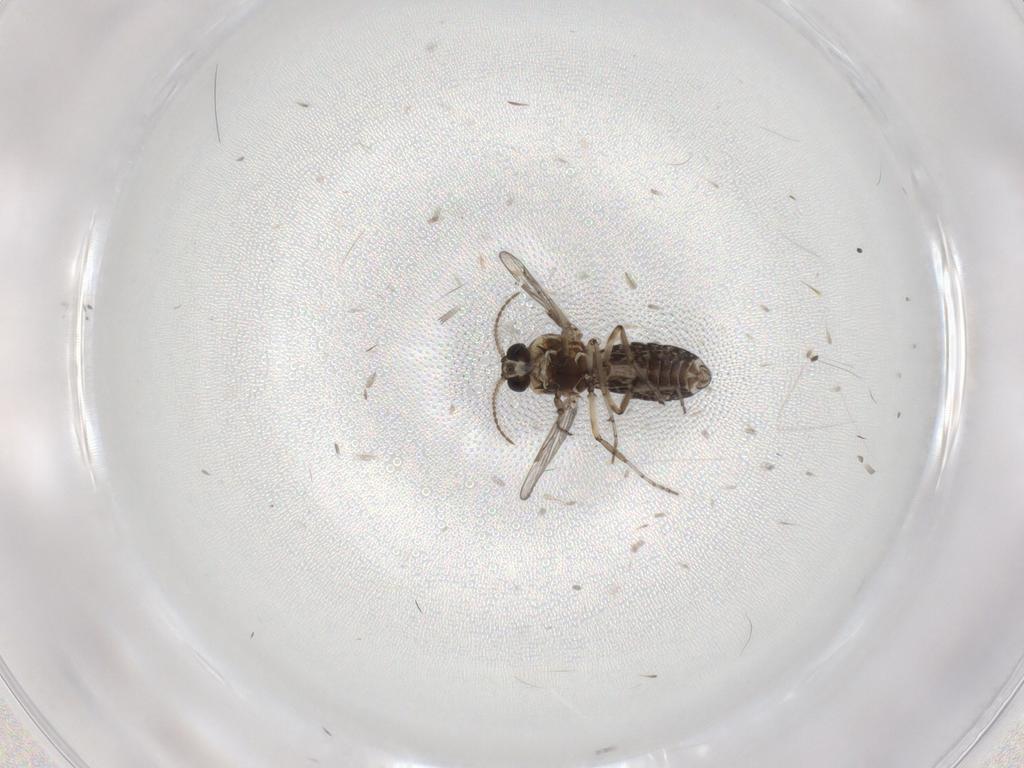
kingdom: Animalia
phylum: Arthropoda
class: Insecta
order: Diptera
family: Ceratopogonidae
